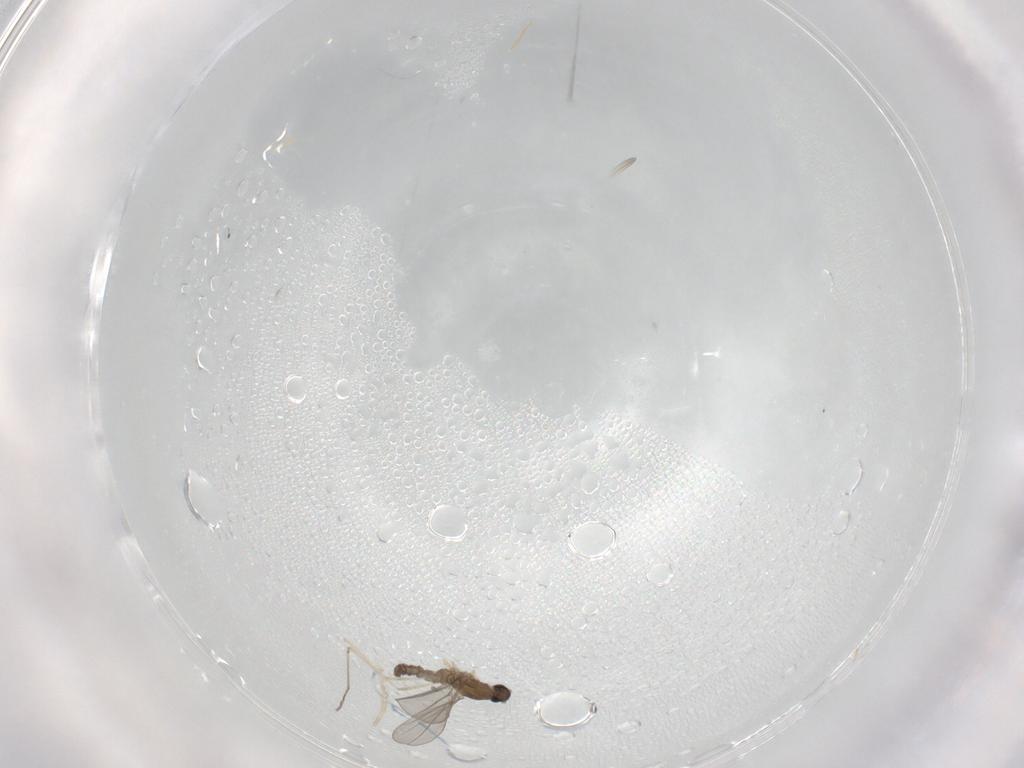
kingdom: Animalia
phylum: Arthropoda
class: Insecta
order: Diptera
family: Cecidomyiidae
